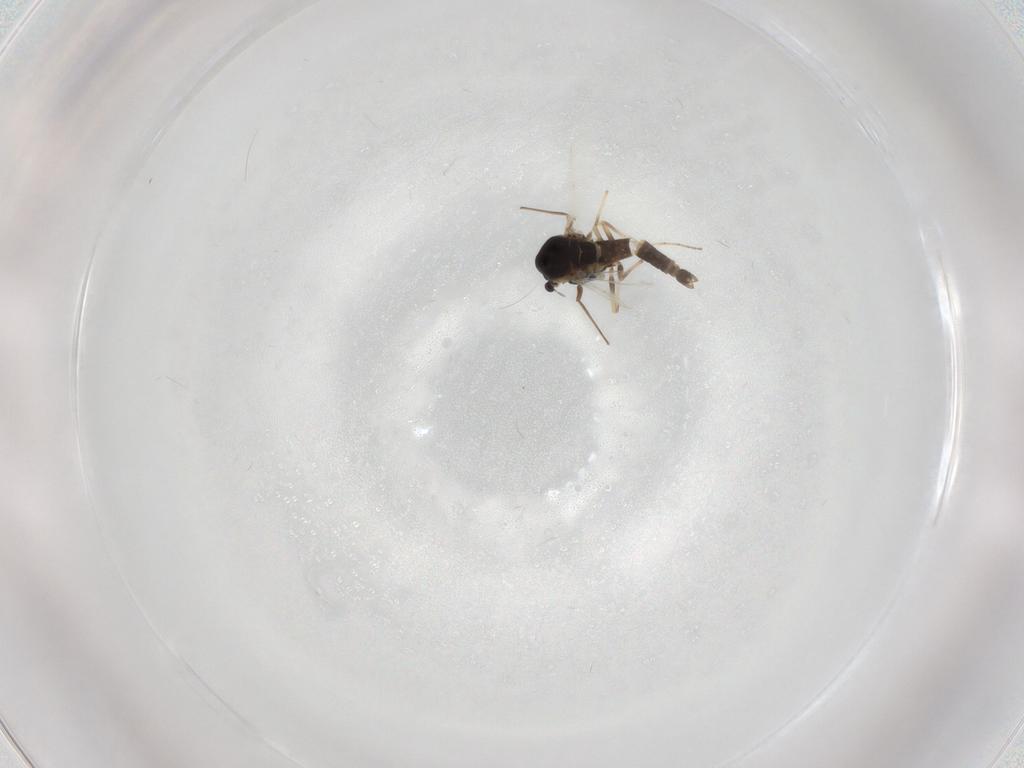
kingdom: Animalia
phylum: Arthropoda
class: Insecta
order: Diptera
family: Chironomidae
